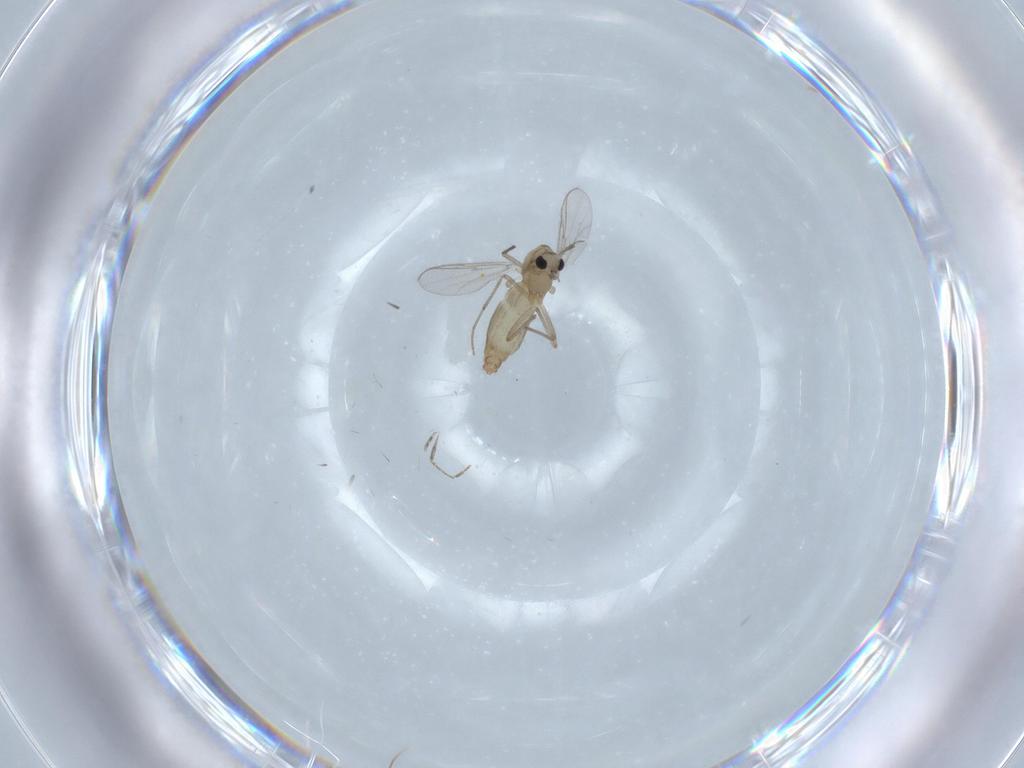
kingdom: Animalia
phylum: Arthropoda
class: Insecta
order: Diptera
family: Chironomidae
